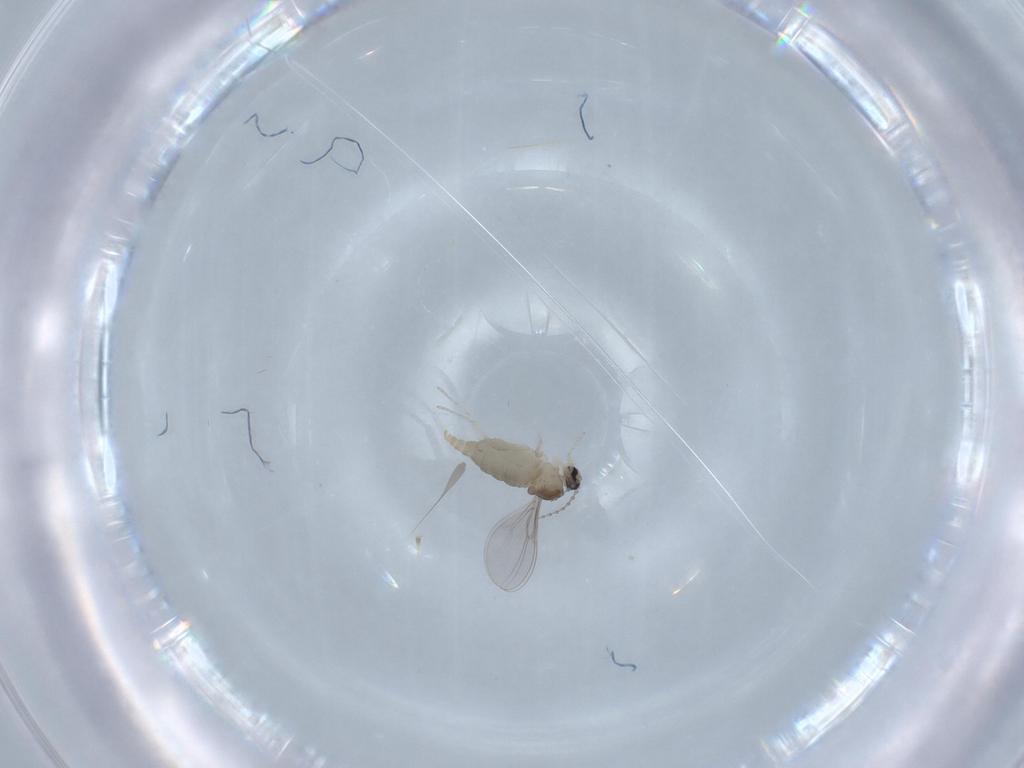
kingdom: Animalia
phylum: Arthropoda
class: Insecta
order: Diptera
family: Cecidomyiidae
